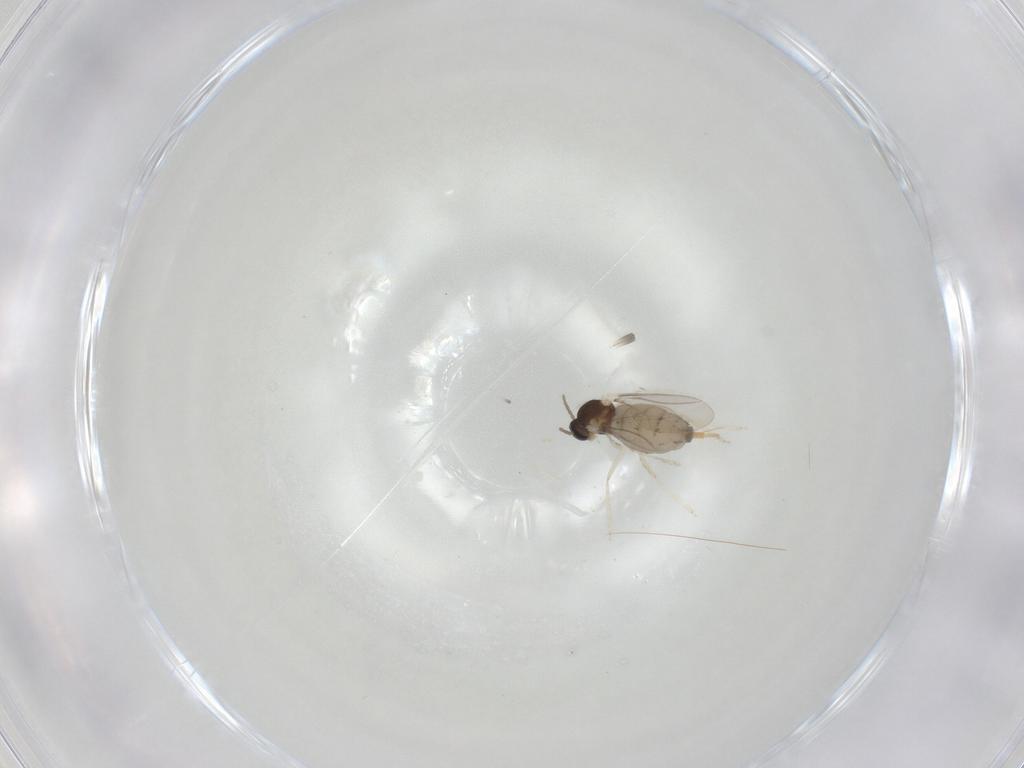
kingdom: Animalia
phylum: Arthropoda
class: Insecta
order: Diptera
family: Cecidomyiidae
